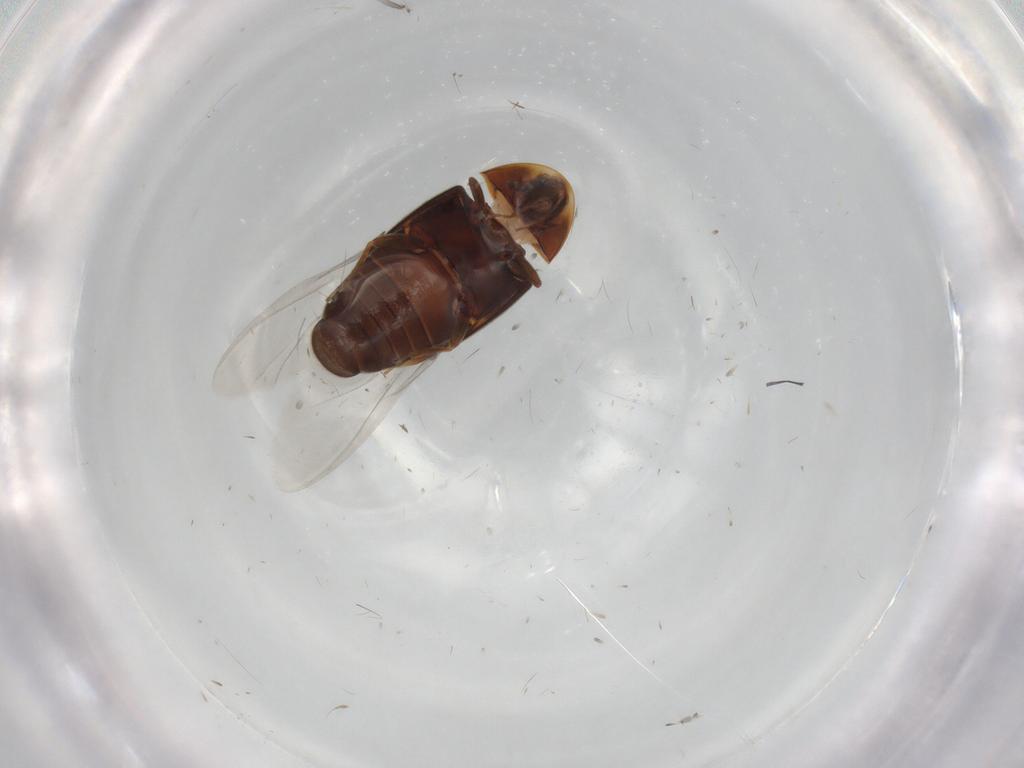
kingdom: Animalia
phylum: Arthropoda
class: Insecta
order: Coleoptera
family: Corylophidae
